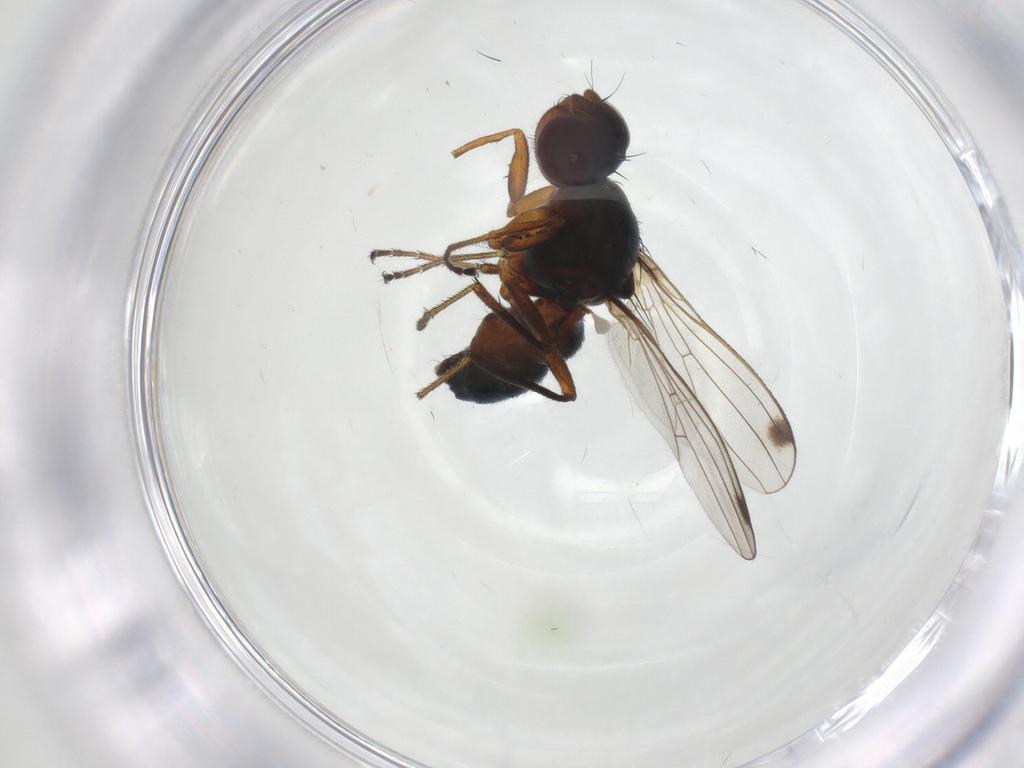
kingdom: Animalia
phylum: Arthropoda
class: Insecta
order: Diptera
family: Sepsidae
